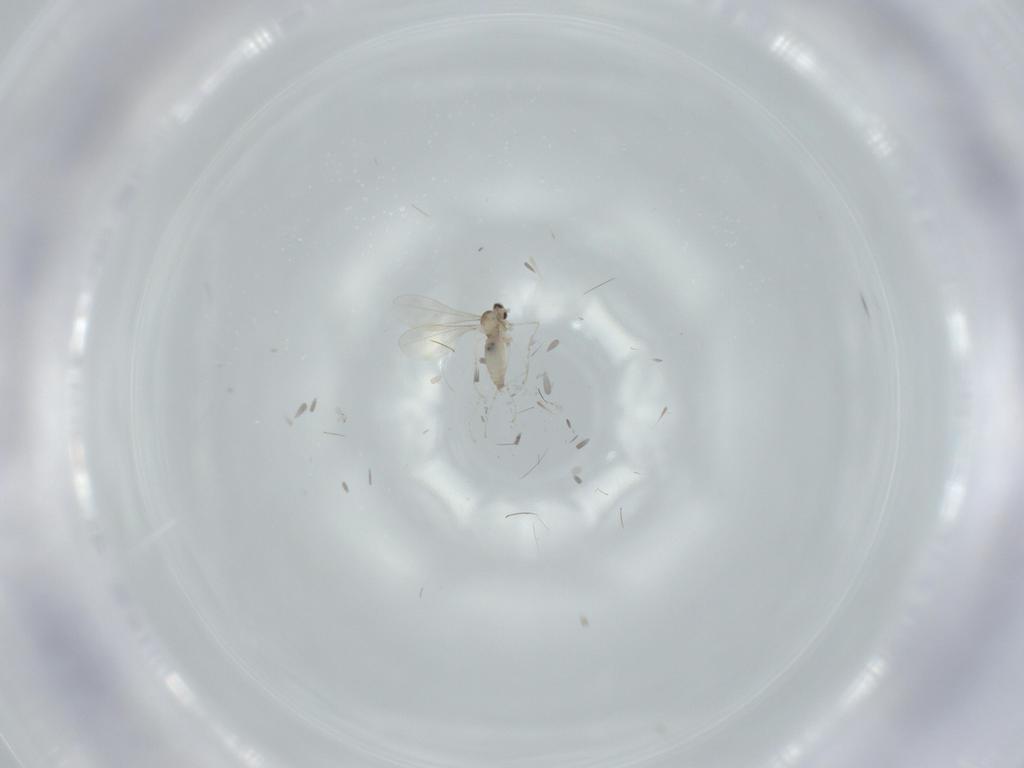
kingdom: Animalia
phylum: Arthropoda
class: Insecta
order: Diptera
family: Cecidomyiidae
